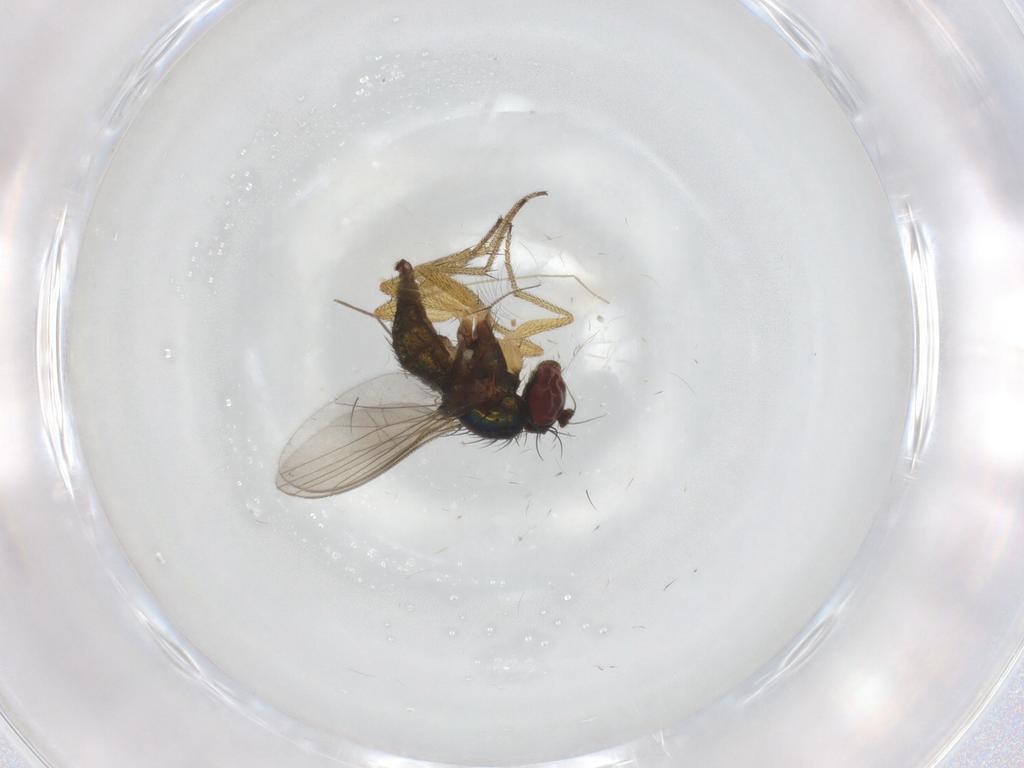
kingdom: Animalia
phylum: Arthropoda
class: Insecta
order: Diptera
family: Chironomidae
